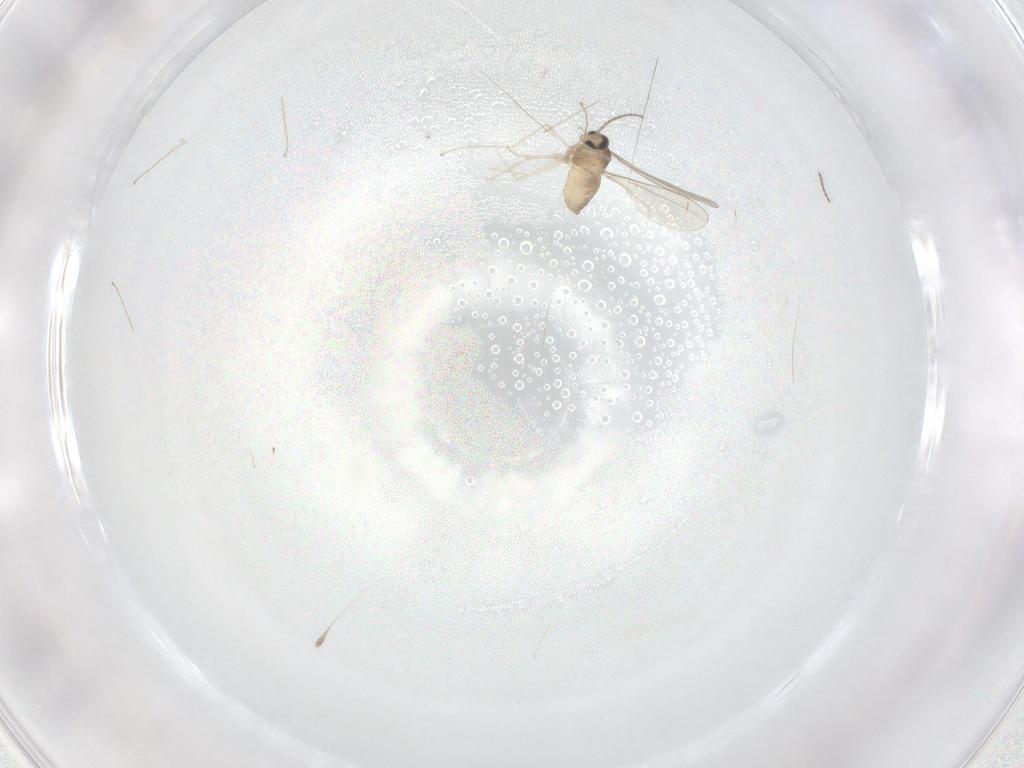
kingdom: Animalia
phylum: Arthropoda
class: Insecta
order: Diptera
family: Cecidomyiidae
